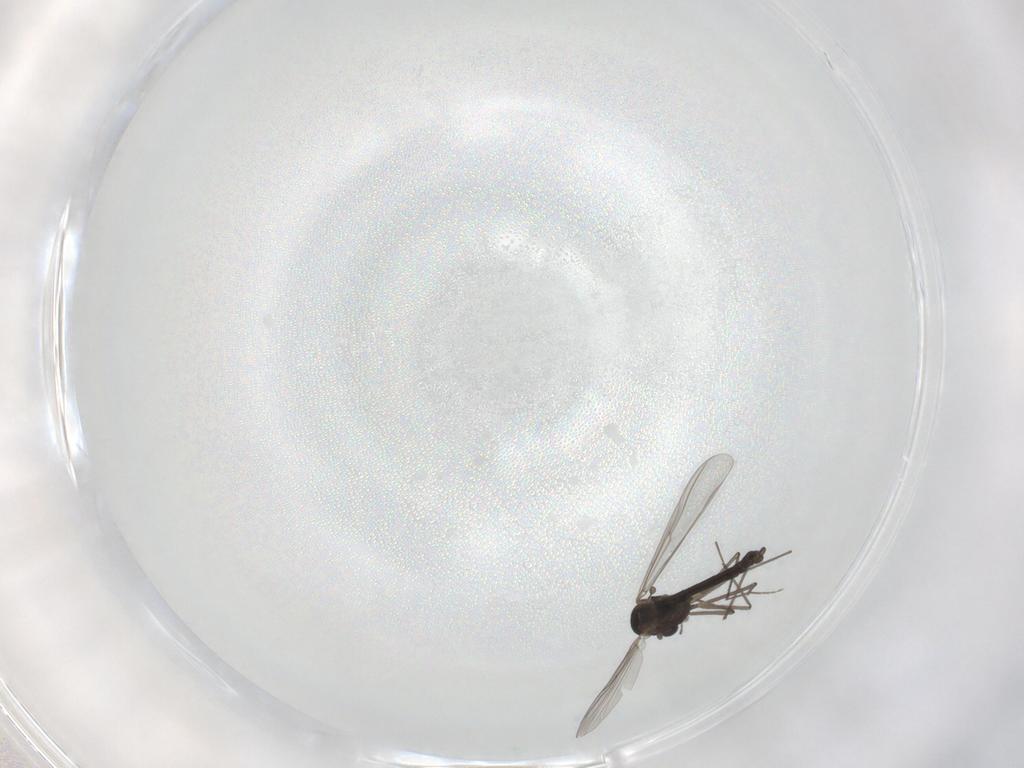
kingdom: Animalia
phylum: Arthropoda
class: Insecta
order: Diptera
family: Chironomidae
